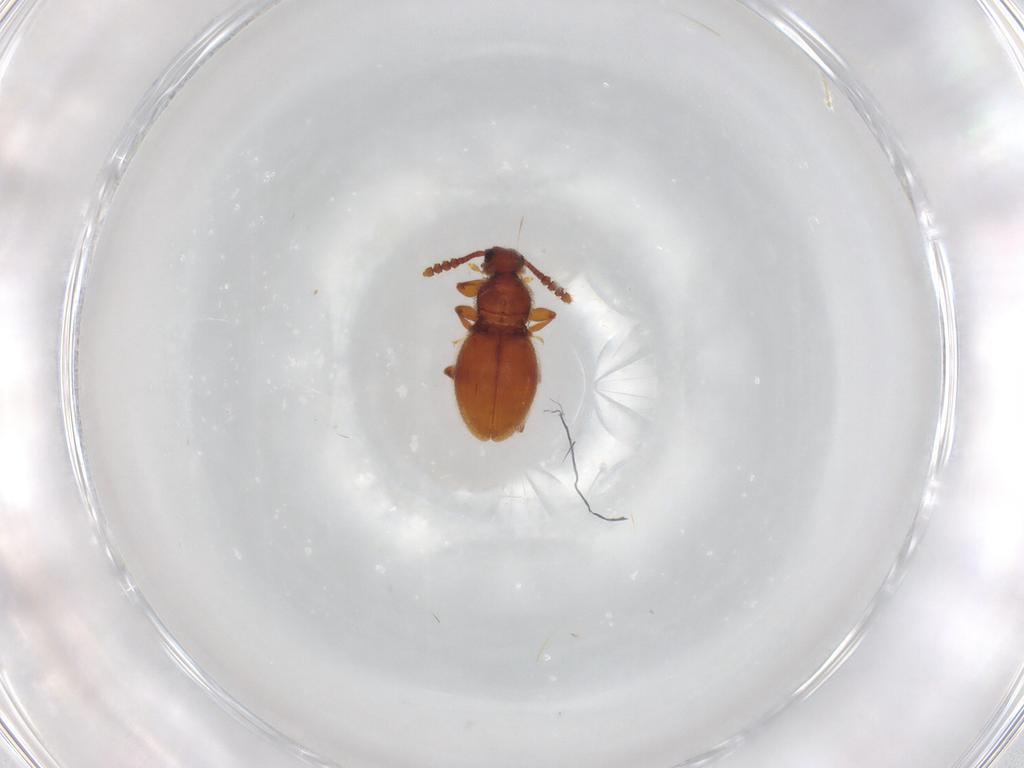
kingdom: Animalia
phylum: Arthropoda
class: Insecta
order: Coleoptera
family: Staphylinidae
